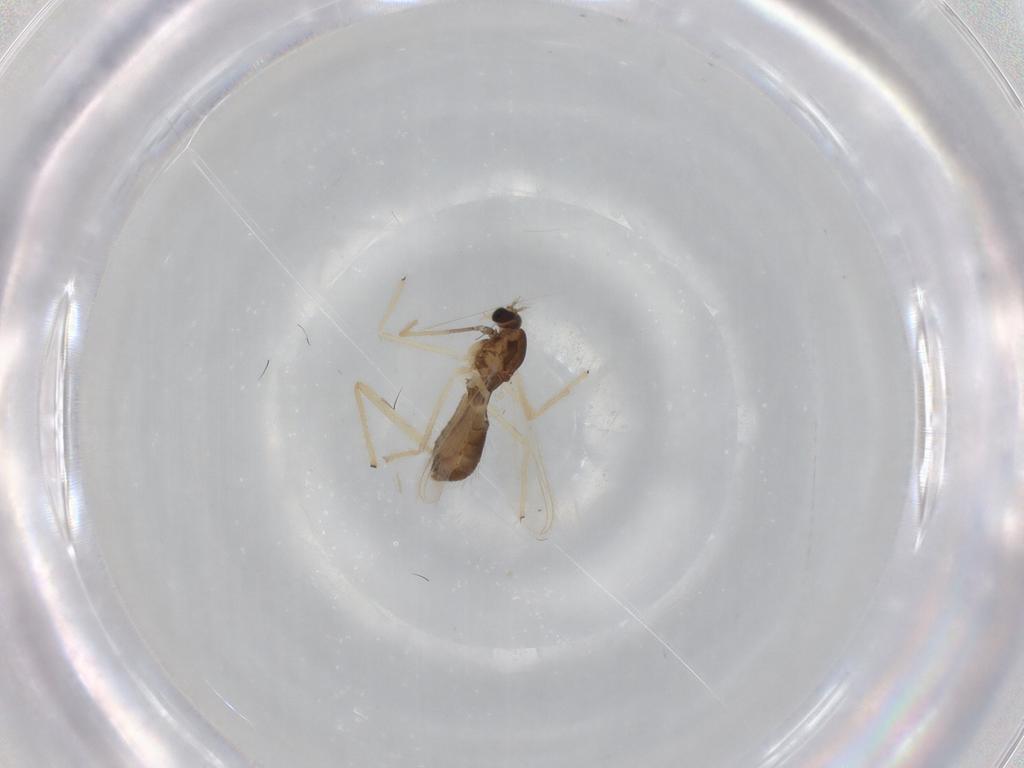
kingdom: Animalia
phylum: Arthropoda
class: Insecta
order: Diptera
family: Chironomidae
